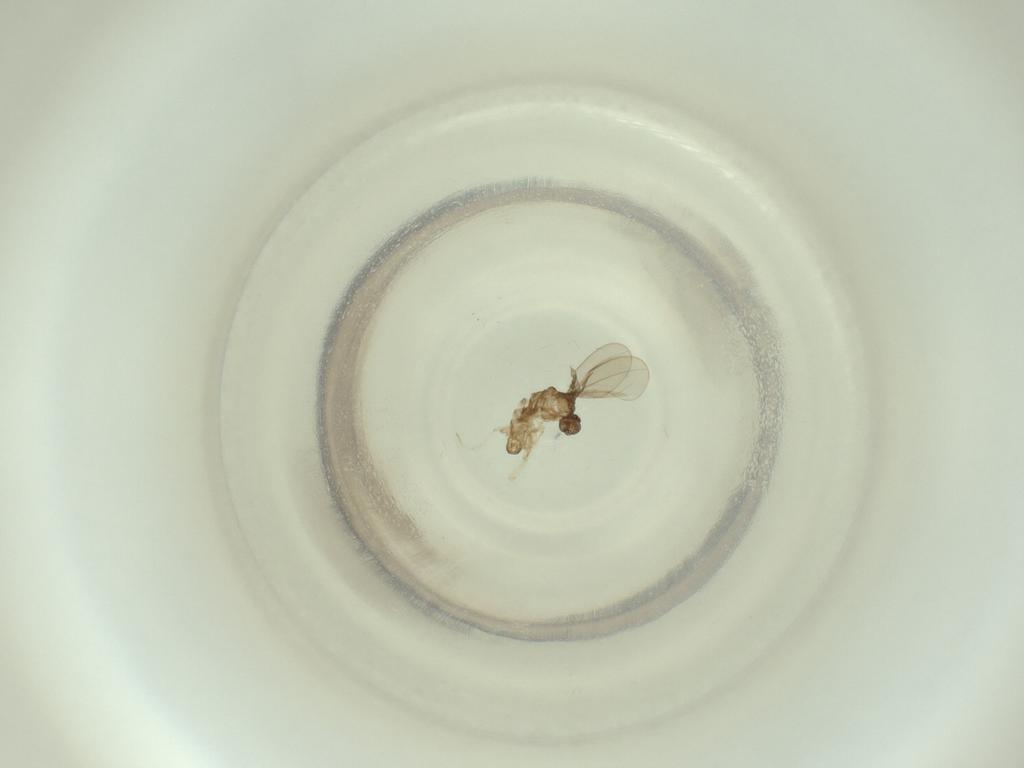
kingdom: Animalia
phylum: Arthropoda
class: Insecta
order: Diptera
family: Cecidomyiidae
